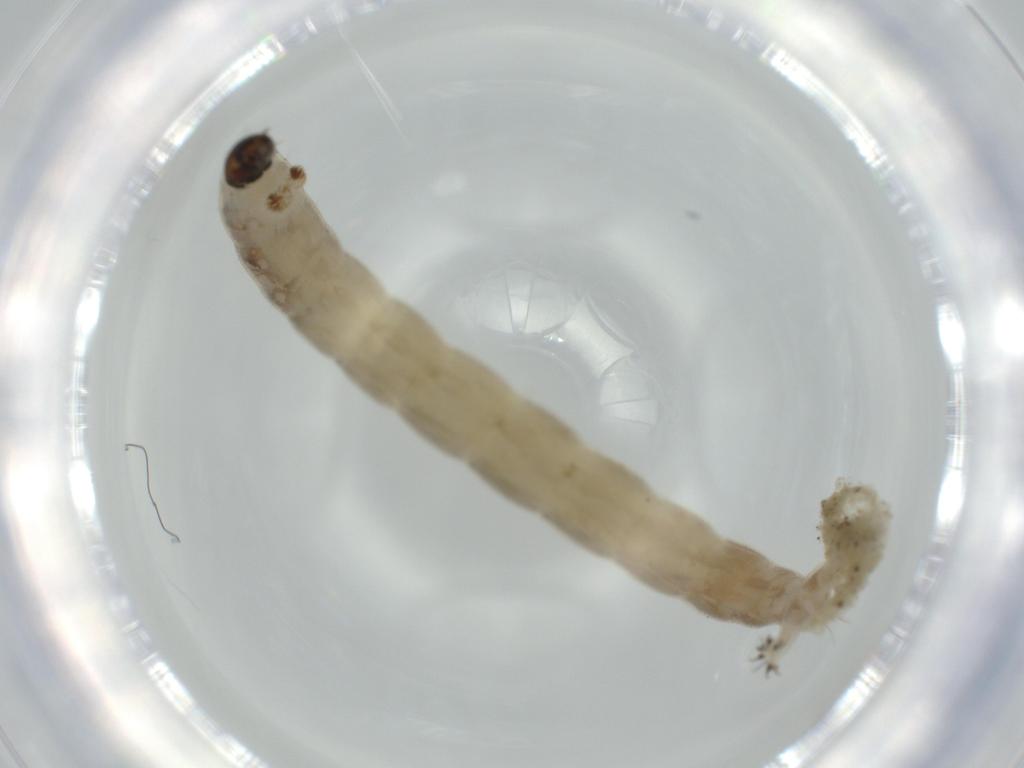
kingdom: Animalia
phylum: Arthropoda
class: Insecta
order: Diptera
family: Chironomidae
